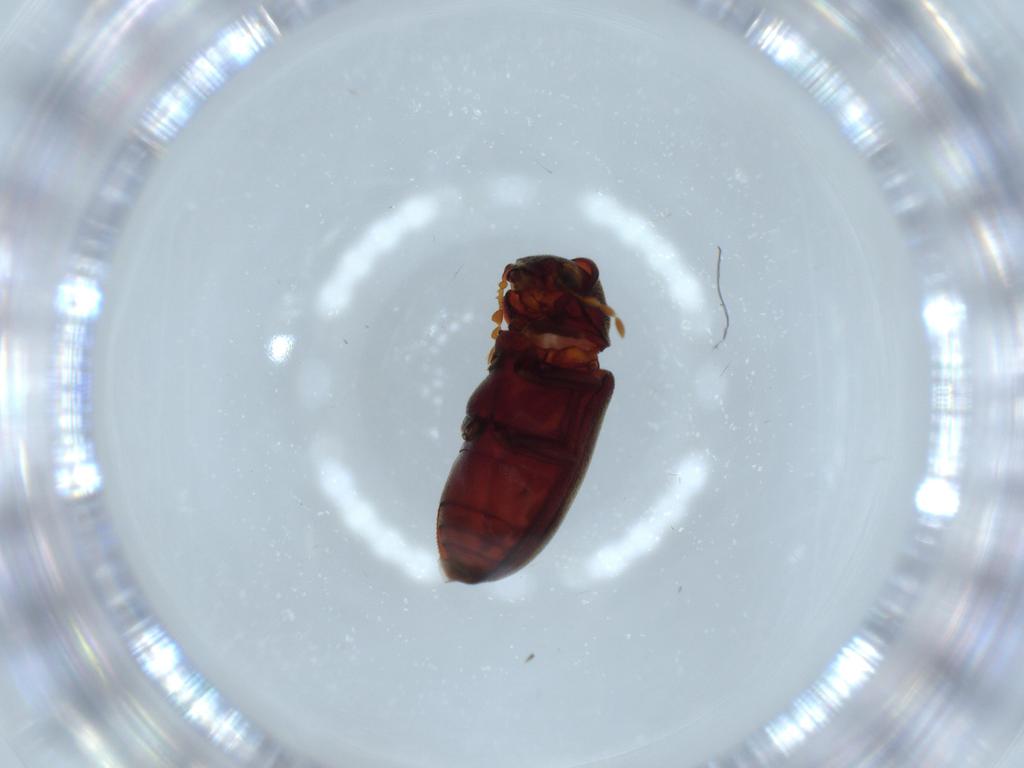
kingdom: Animalia
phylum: Arthropoda
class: Insecta
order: Coleoptera
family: Ptinidae
